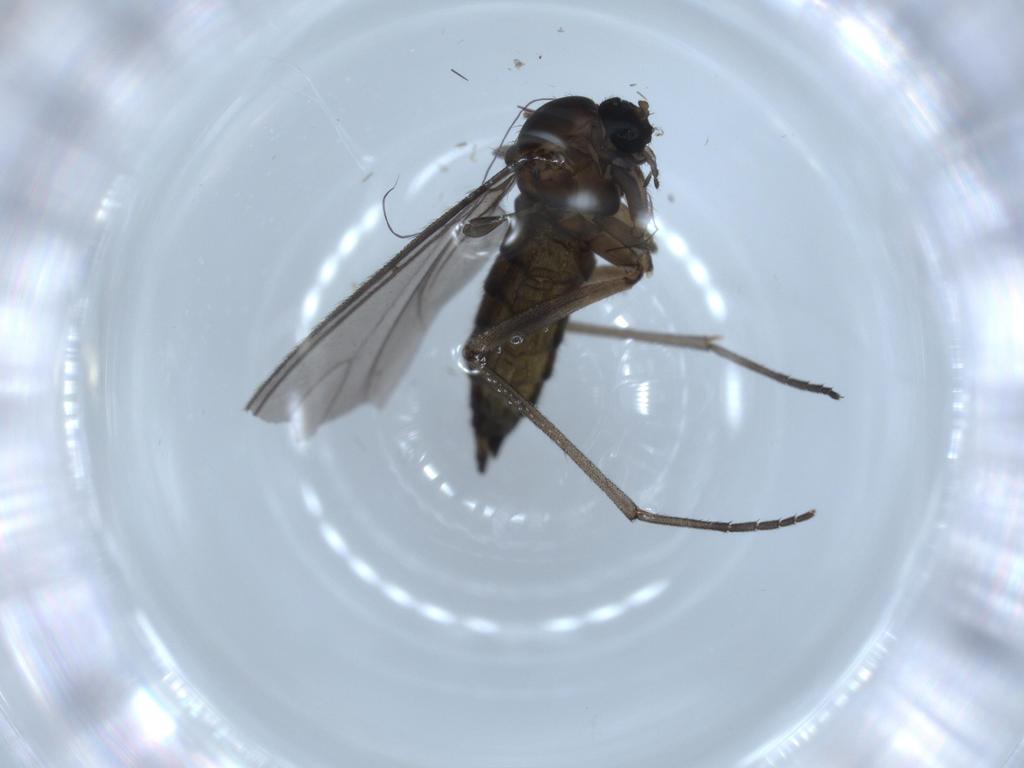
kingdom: Animalia
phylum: Arthropoda
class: Insecta
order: Diptera
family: Sciaridae
